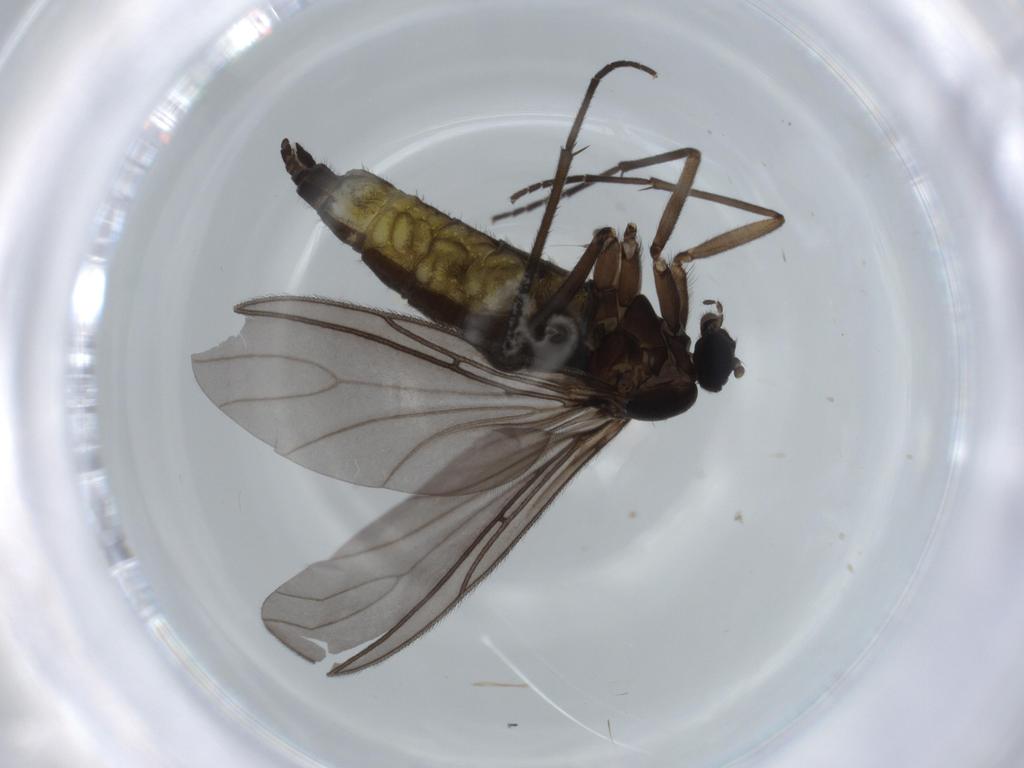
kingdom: Animalia
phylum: Arthropoda
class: Insecta
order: Diptera
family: Sciaridae
